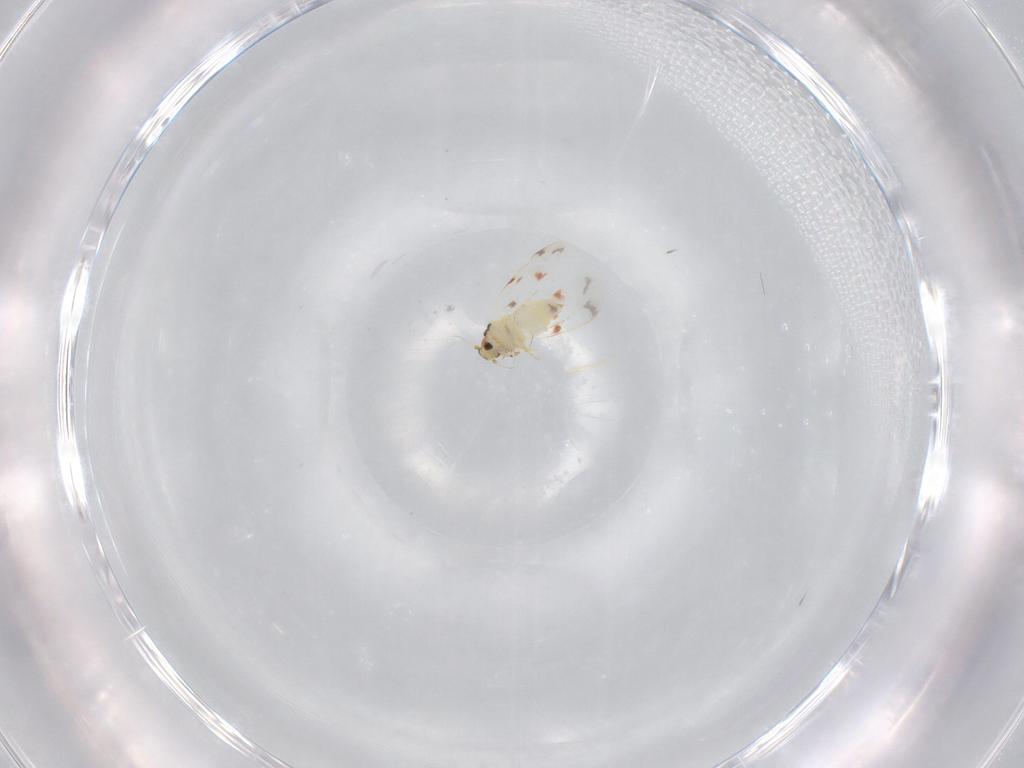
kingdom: Animalia
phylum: Arthropoda
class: Insecta
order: Hemiptera
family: Aleyrodidae
